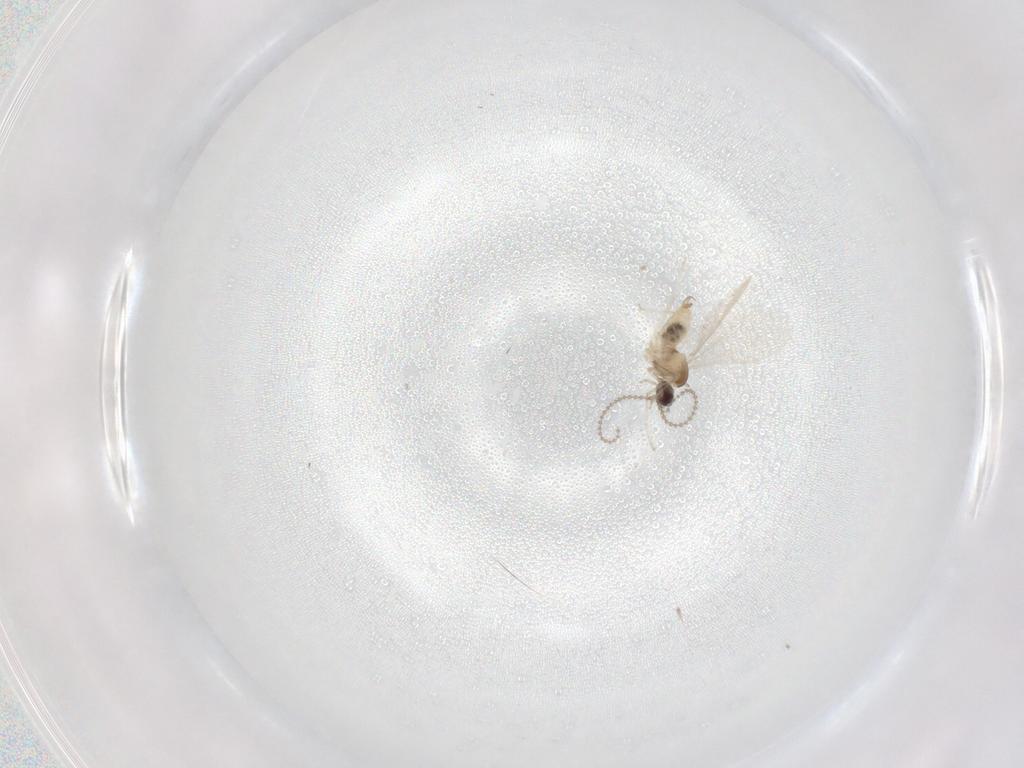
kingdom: Animalia
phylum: Arthropoda
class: Insecta
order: Diptera
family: Cecidomyiidae
